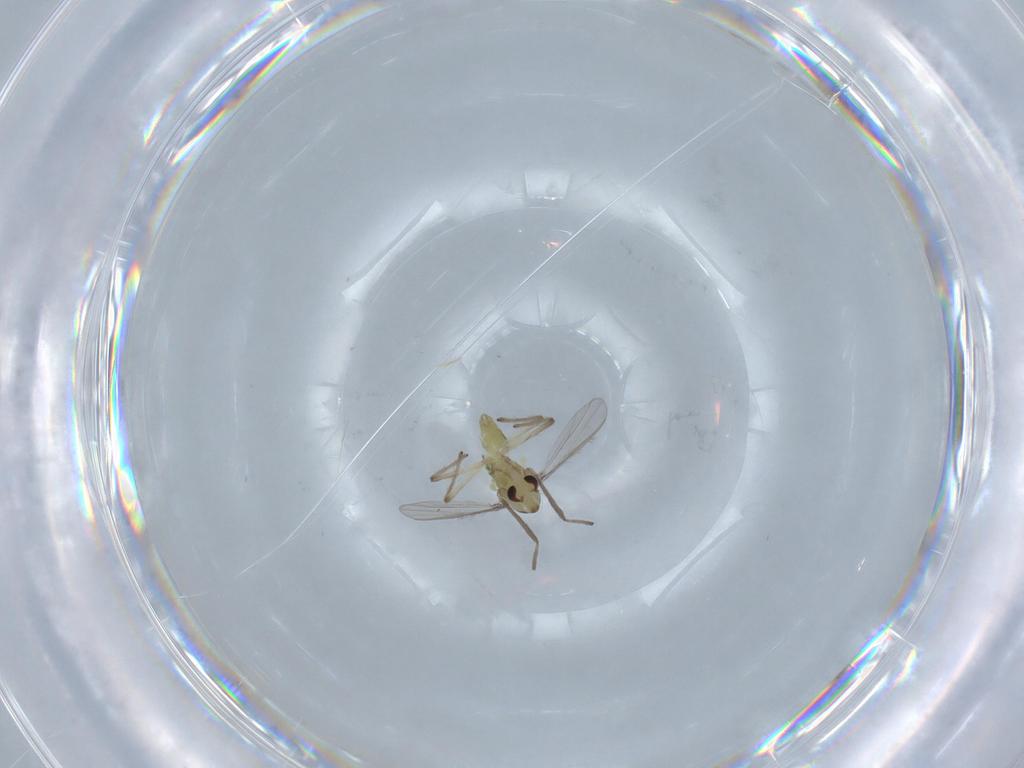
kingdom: Animalia
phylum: Arthropoda
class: Insecta
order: Diptera
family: Chironomidae
